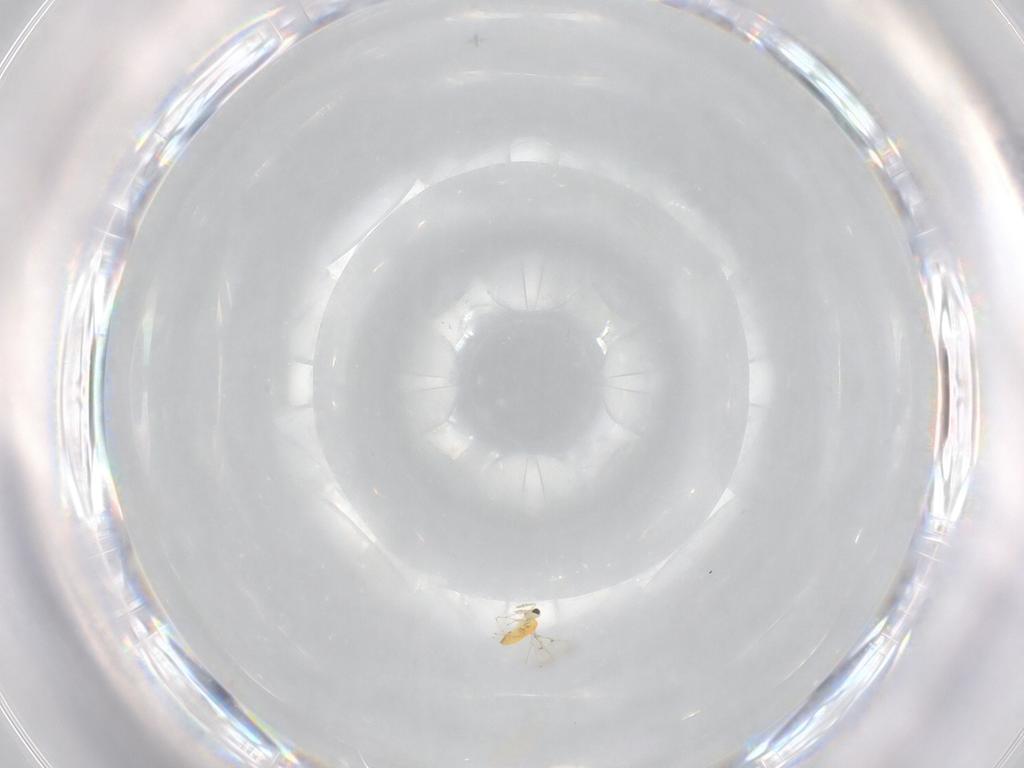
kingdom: Animalia
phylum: Arthropoda
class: Insecta
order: Hymenoptera
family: Trichogrammatidae
